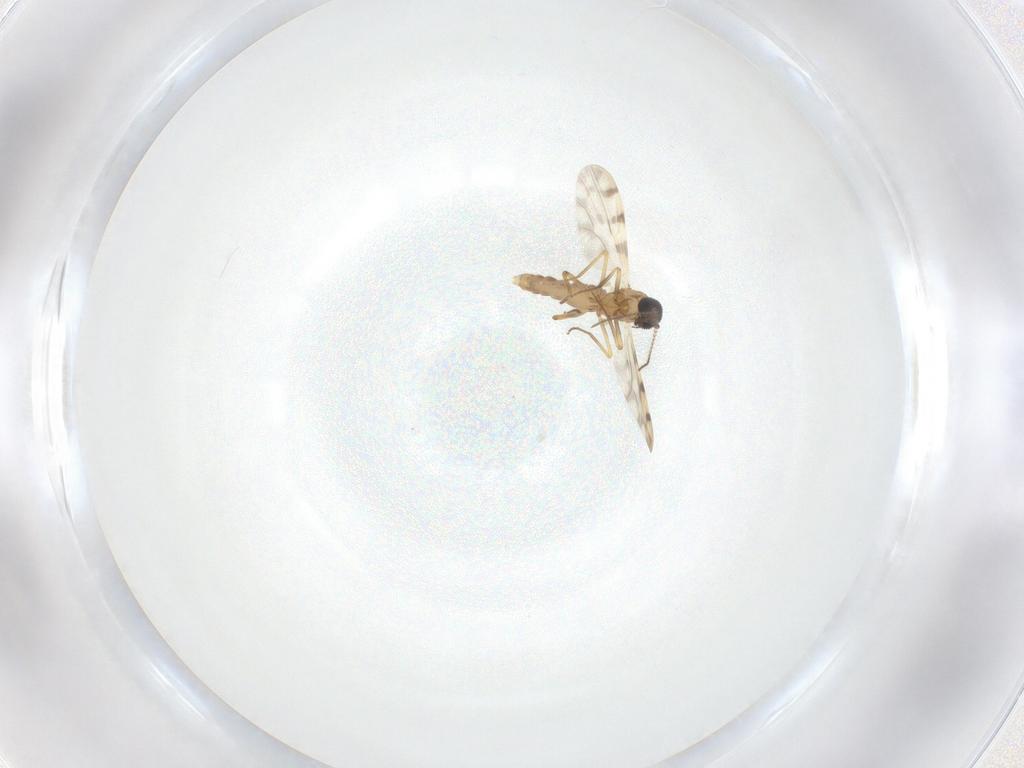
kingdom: Animalia
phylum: Arthropoda
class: Insecta
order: Diptera
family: Ceratopogonidae
